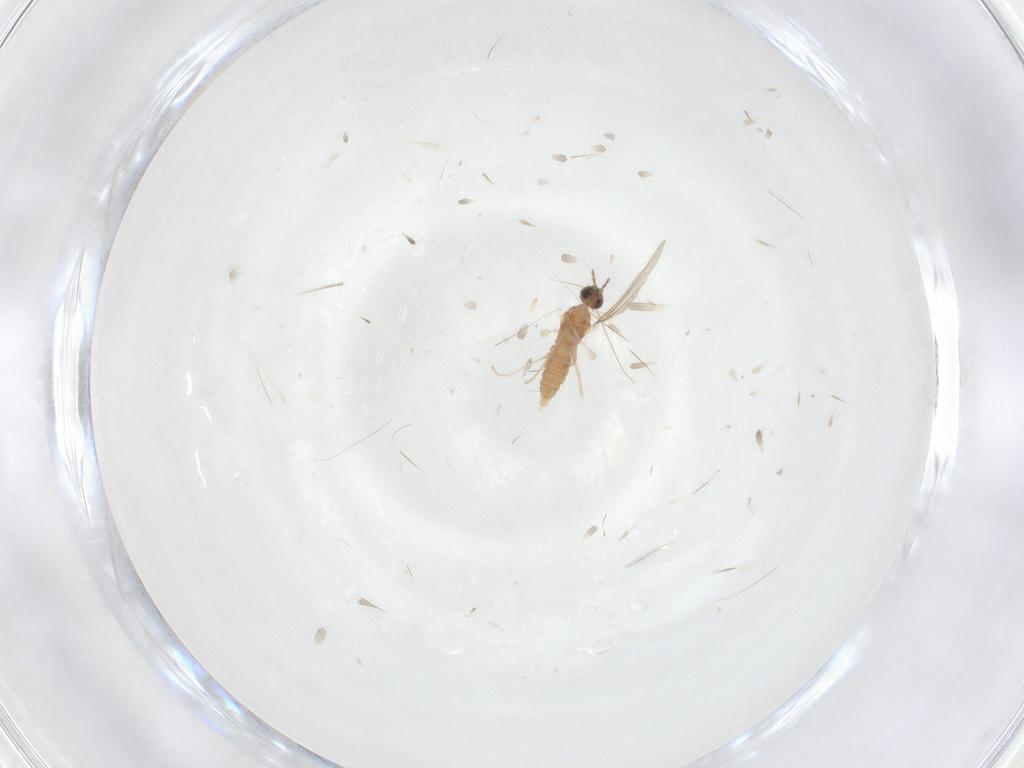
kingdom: Animalia
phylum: Arthropoda
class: Insecta
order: Diptera
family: Cecidomyiidae
